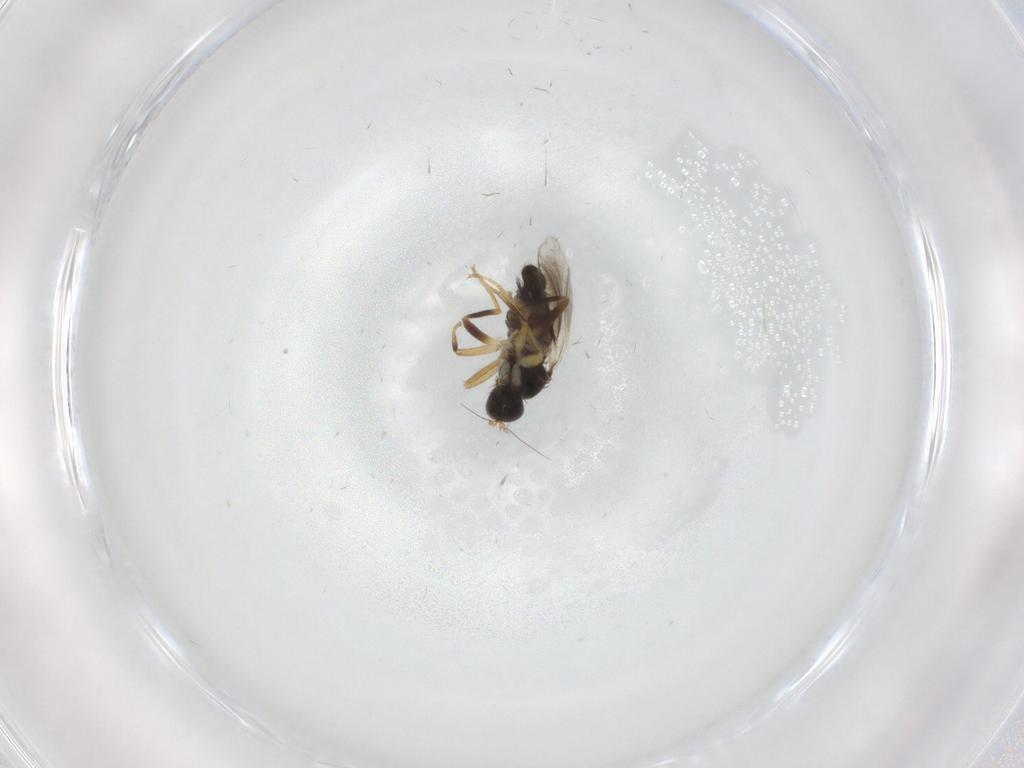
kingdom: Animalia
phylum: Arthropoda
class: Insecta
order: Diptera
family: Hybotidae
